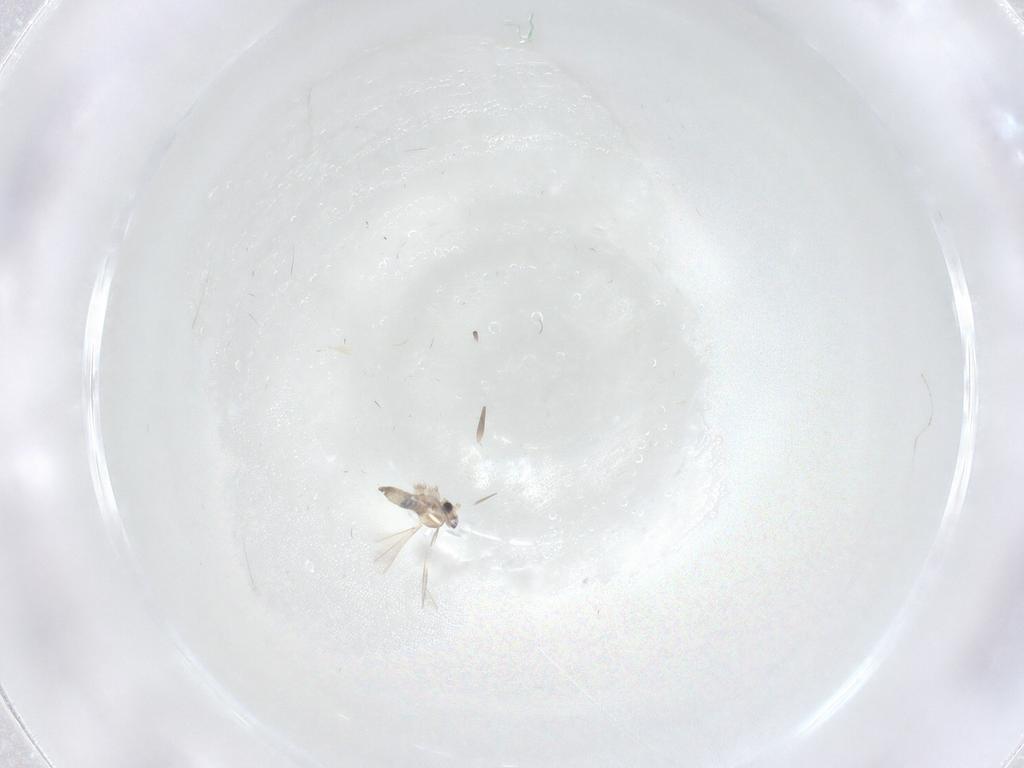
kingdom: Animalia
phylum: Arthropoda
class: Insecta
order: Diptera
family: Cecidomyiidae
